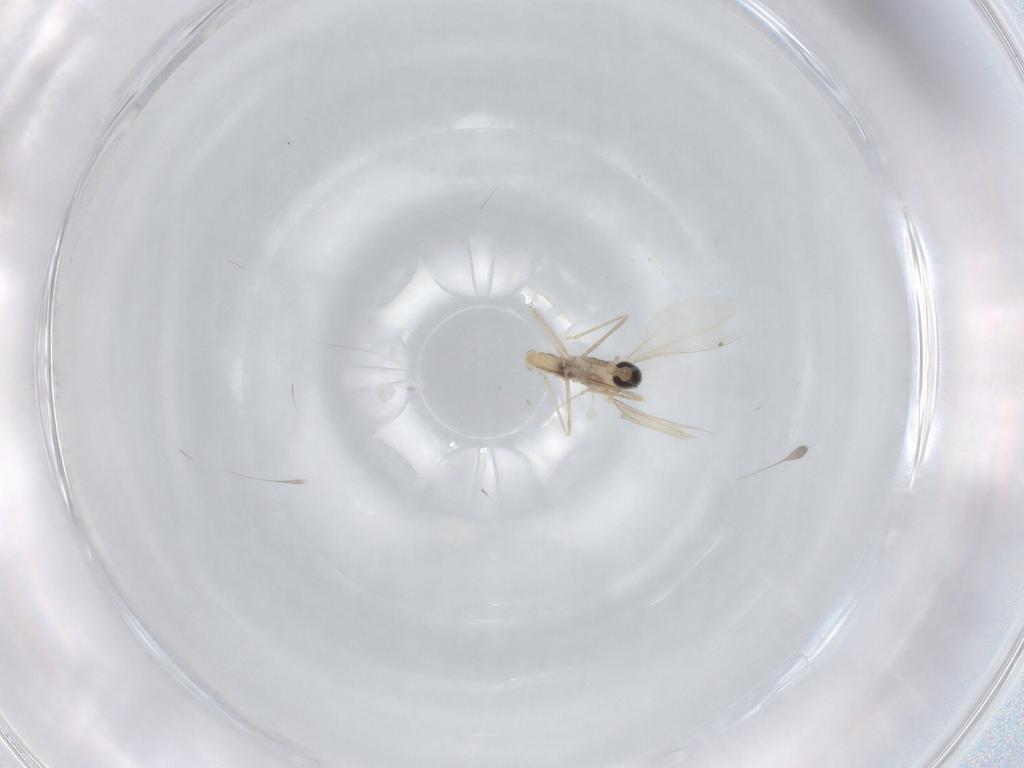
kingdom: Animalia
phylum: Arthropoda
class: Insecta
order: Diptera
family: Cecidomyiidae
